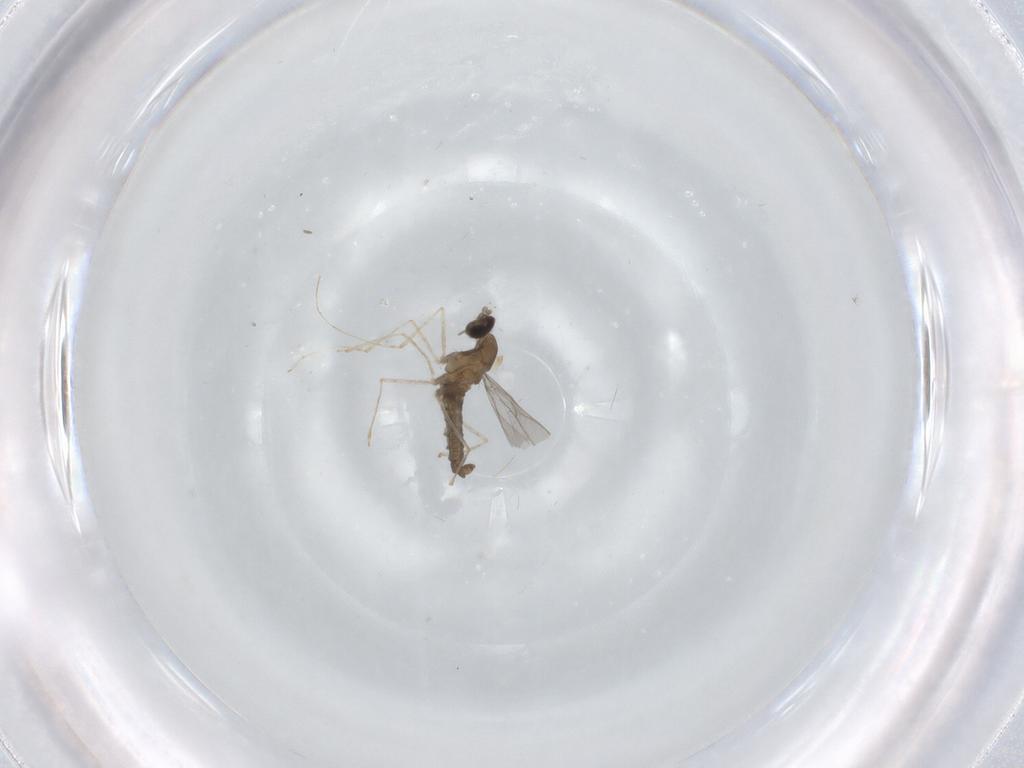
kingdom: Animalia
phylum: Arthropoda
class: Insecta
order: Diptera
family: Cecidomyiidae
